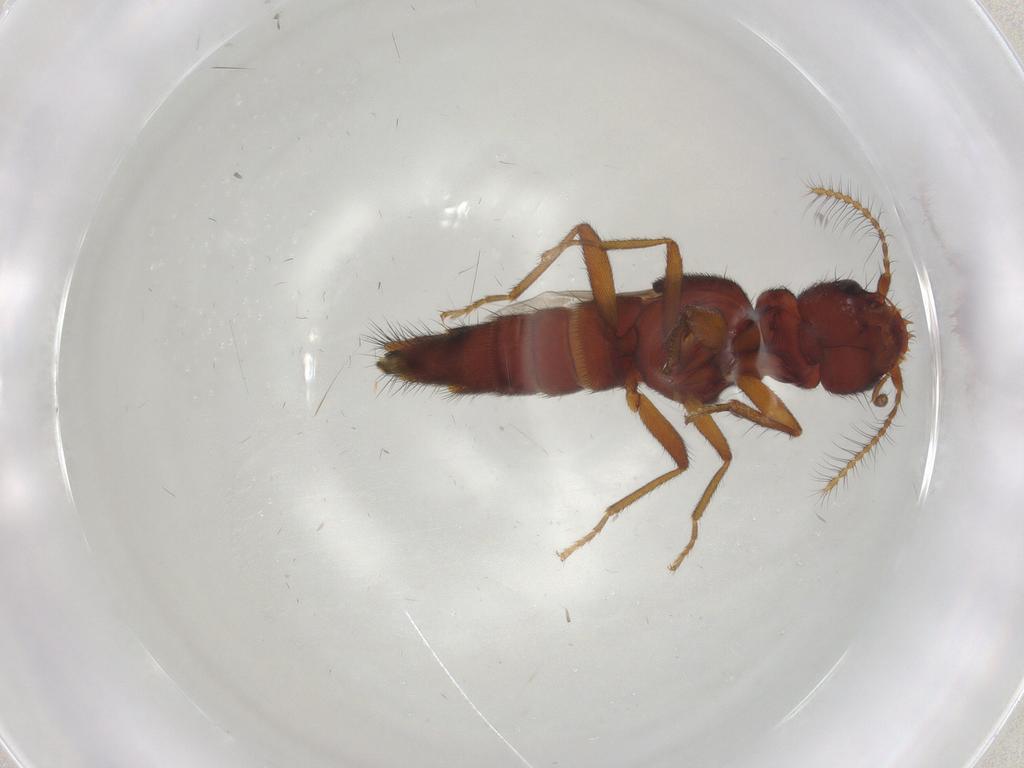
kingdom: Animalia
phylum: Arthropoda
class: Insecta
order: Coleoptera
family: Staphylinidae
